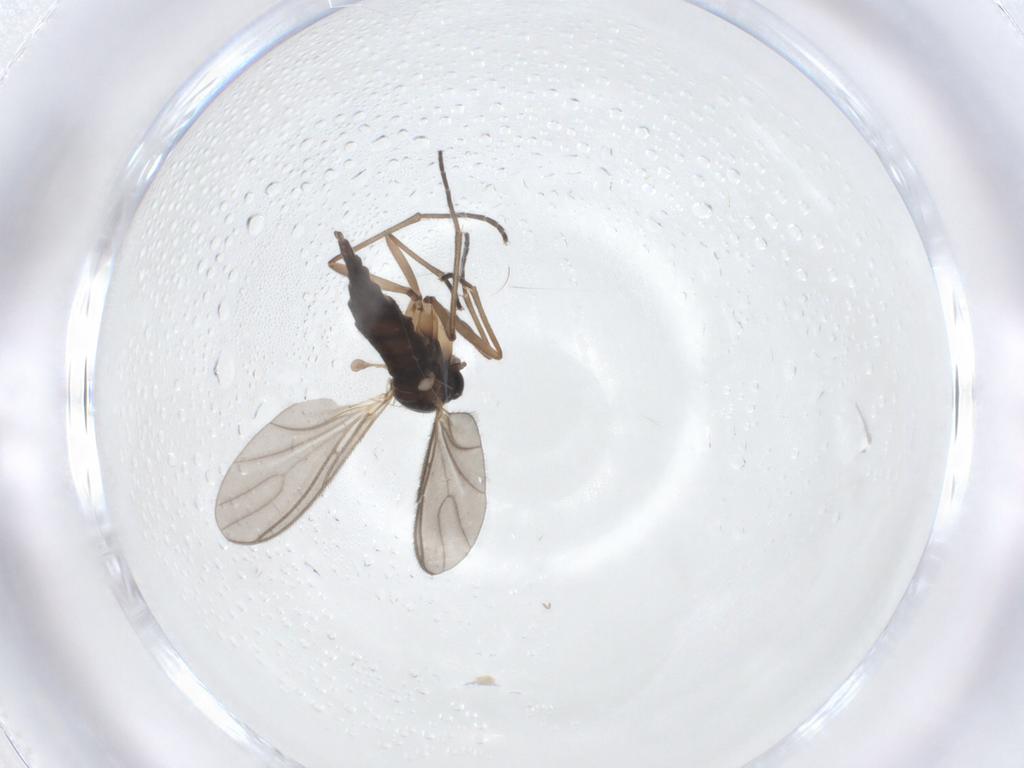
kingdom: Animalia
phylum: Arthropoda
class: Insecta
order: Diptera
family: Sciaridae
